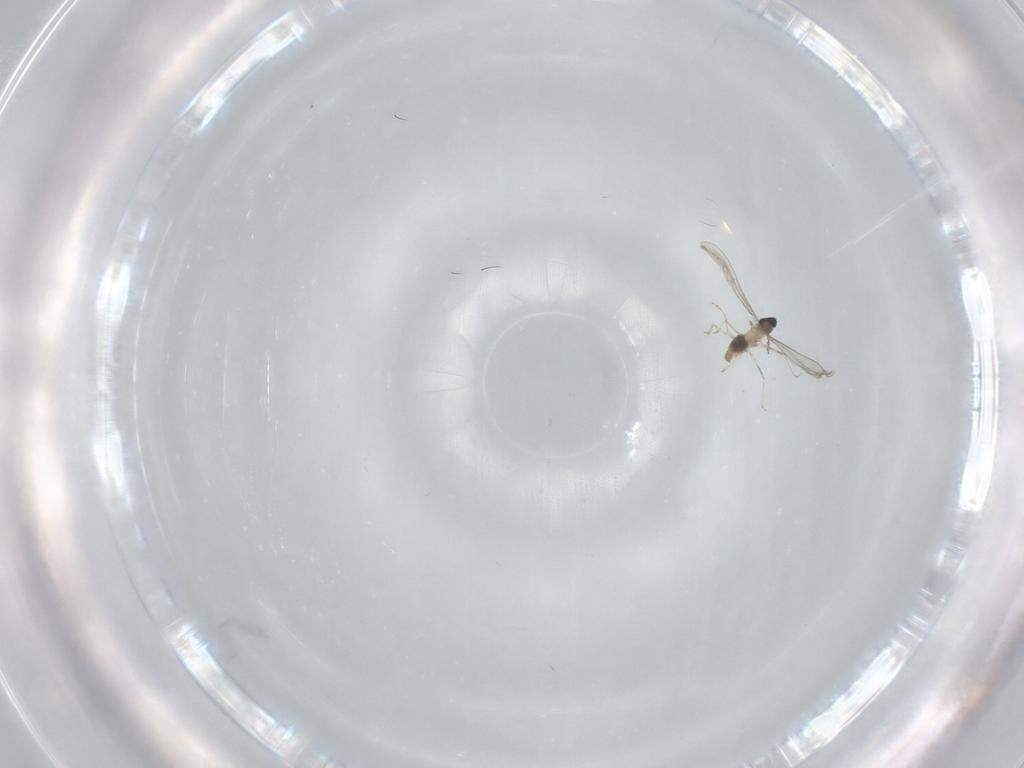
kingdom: Animalia
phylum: Arthropoda
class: Insecta
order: Diptera
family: Cecidomyiidae
